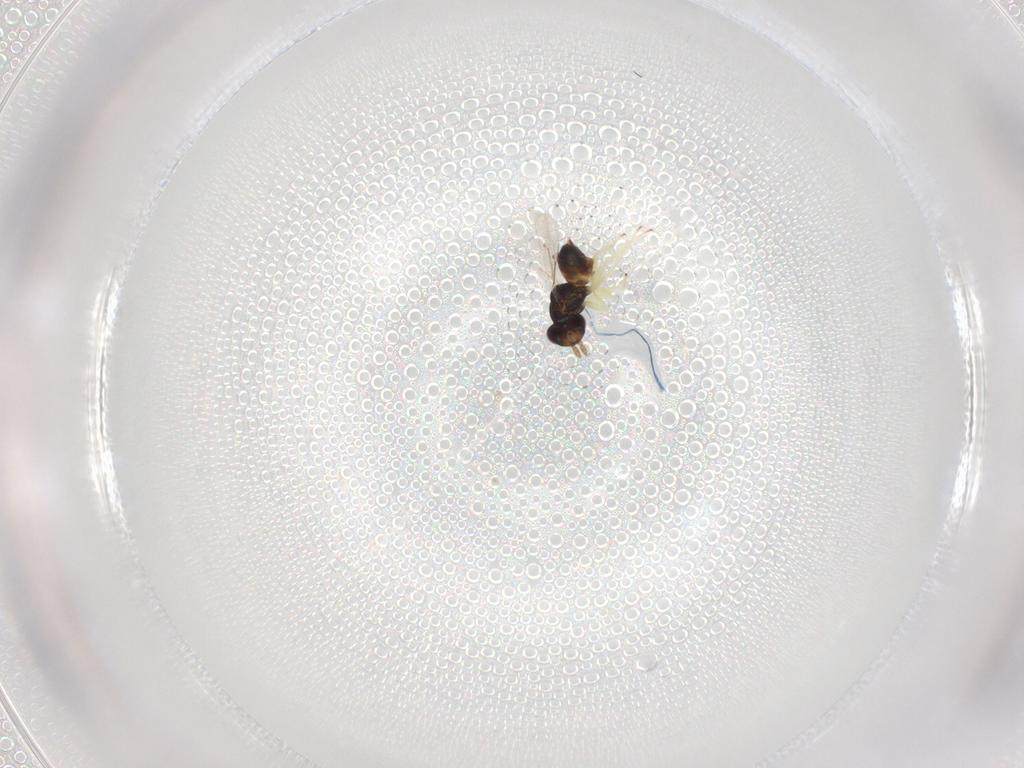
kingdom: Animalia
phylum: Arthropoda
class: Insecta
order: Hymenoptera
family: Eulophidae
